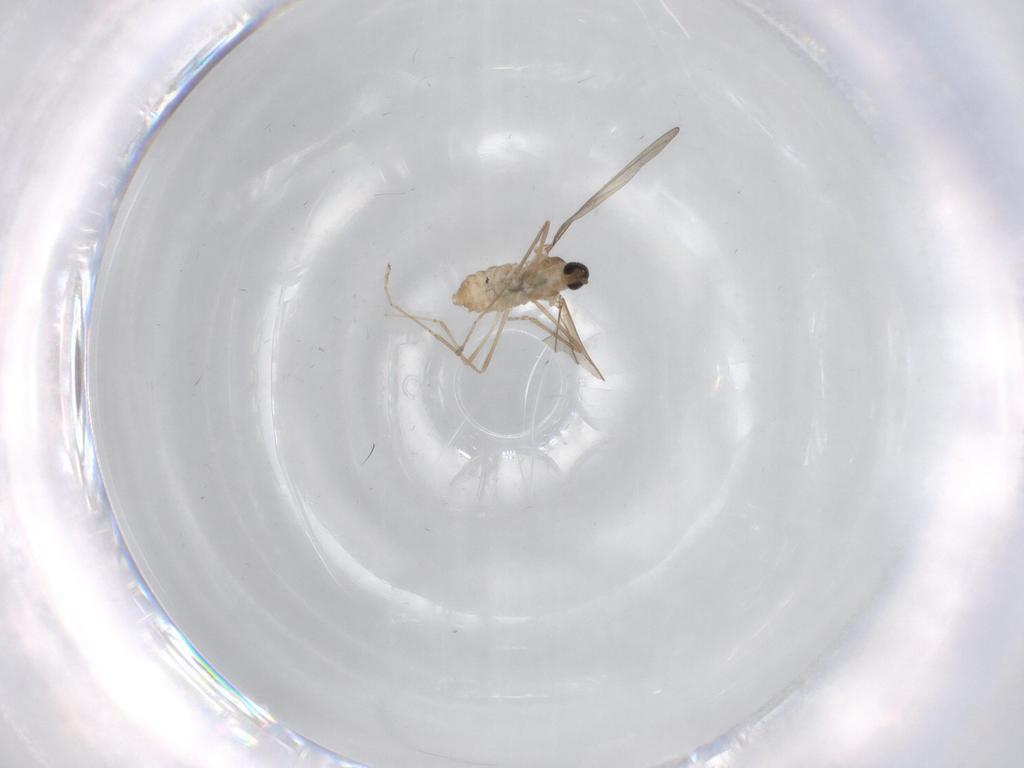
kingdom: Animalia
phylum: Arthropoda
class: Insecta
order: Diptera
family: Cecidomyiidae
